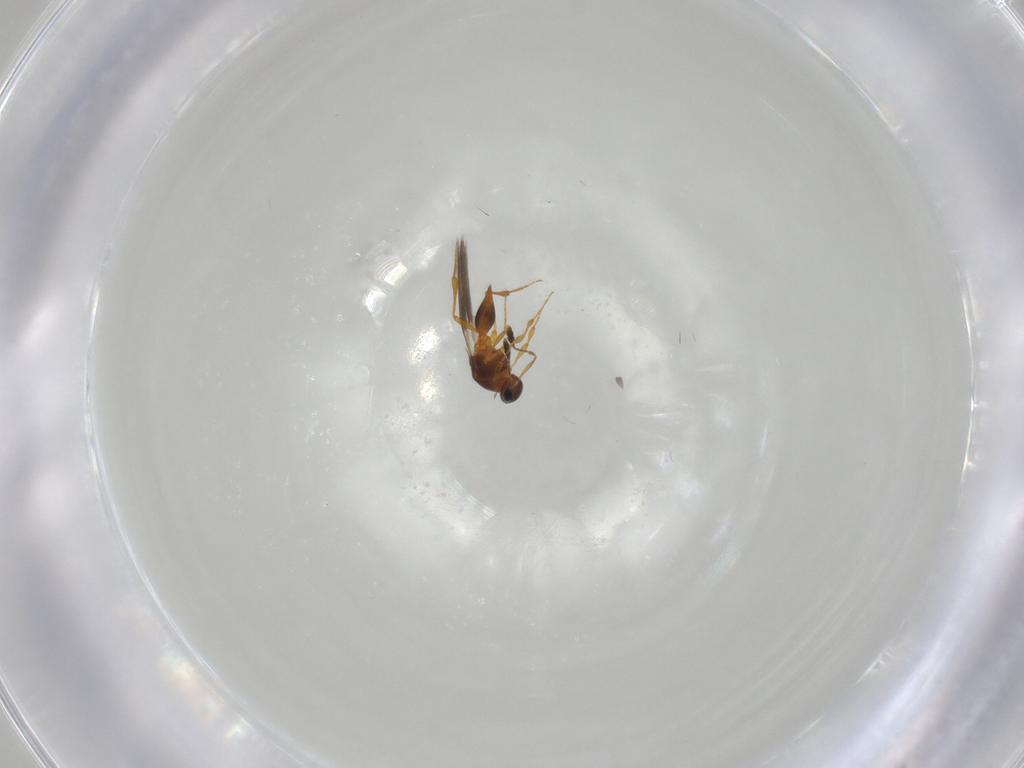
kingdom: Animalia
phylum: Arthropoda
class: Insecta
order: Hymenoptera
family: Platygastridae
